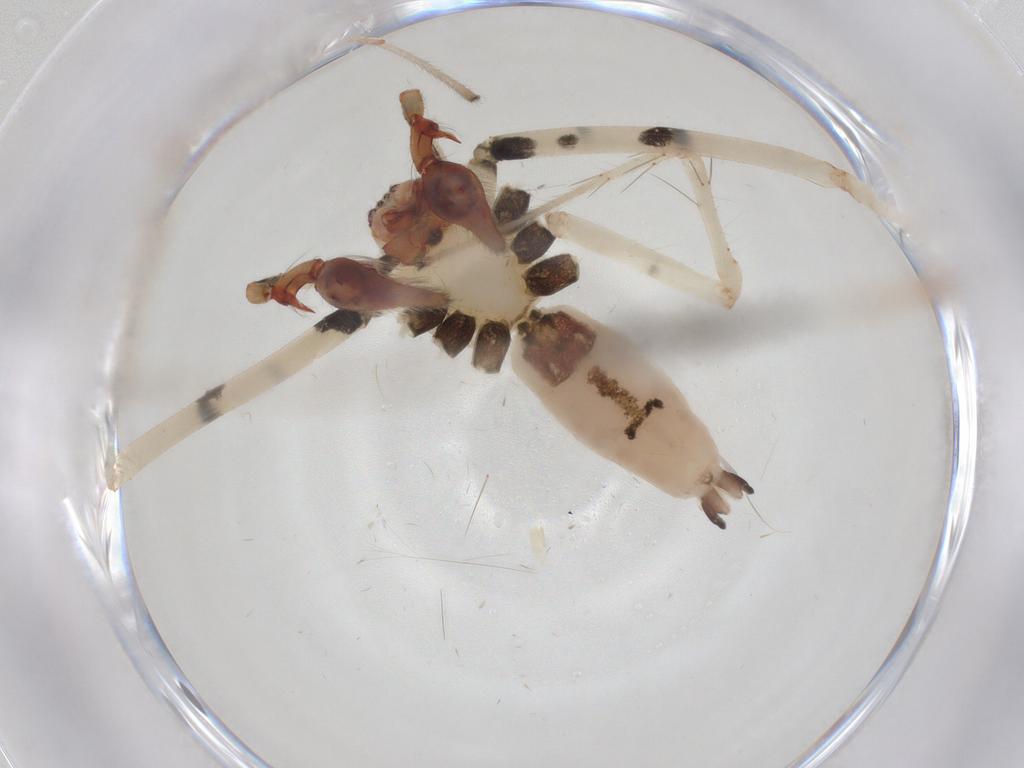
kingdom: Animalia
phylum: Arthropoda
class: Arachnida
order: Araneae
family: Anyphaenidae
